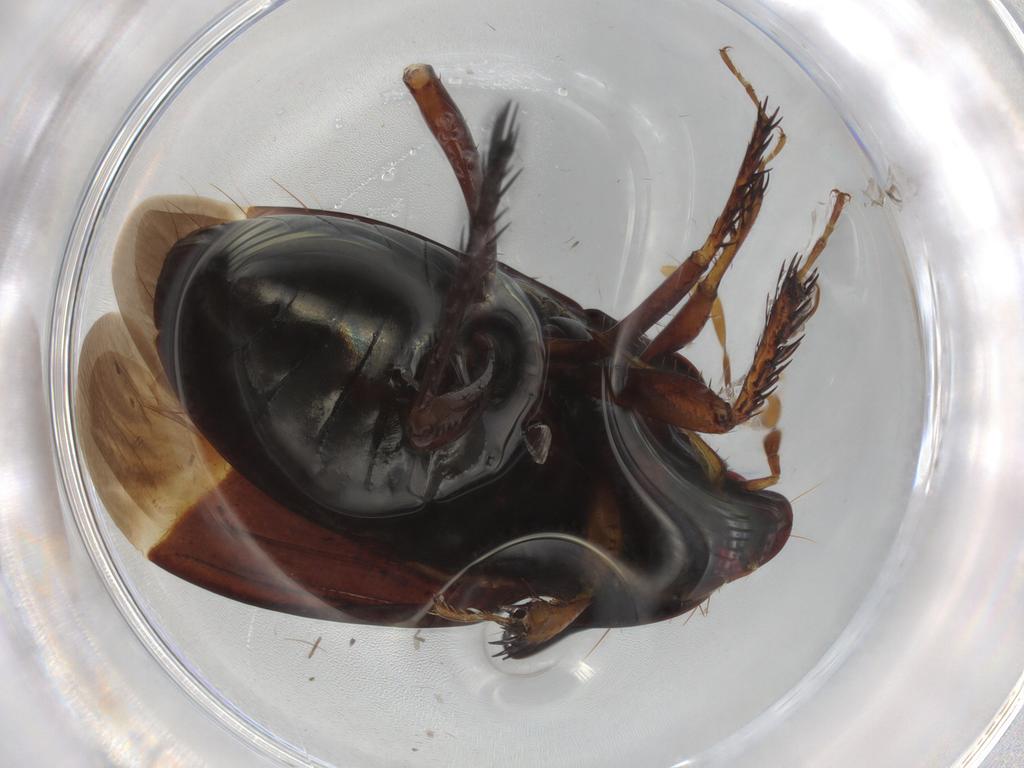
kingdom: Animalia
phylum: Arthropoda
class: Insecta
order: Hemiptera
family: Cydnidae
